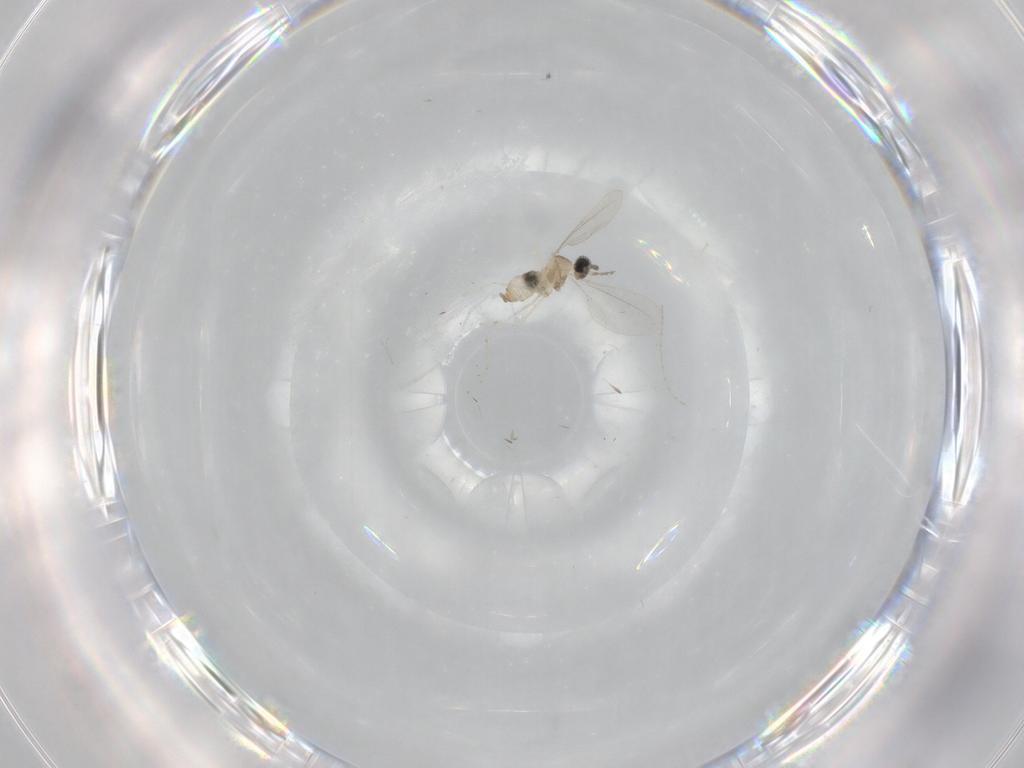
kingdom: Animalia
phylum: Arthropoda
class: Insecta
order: Diptera
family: Cecidomyiidae
